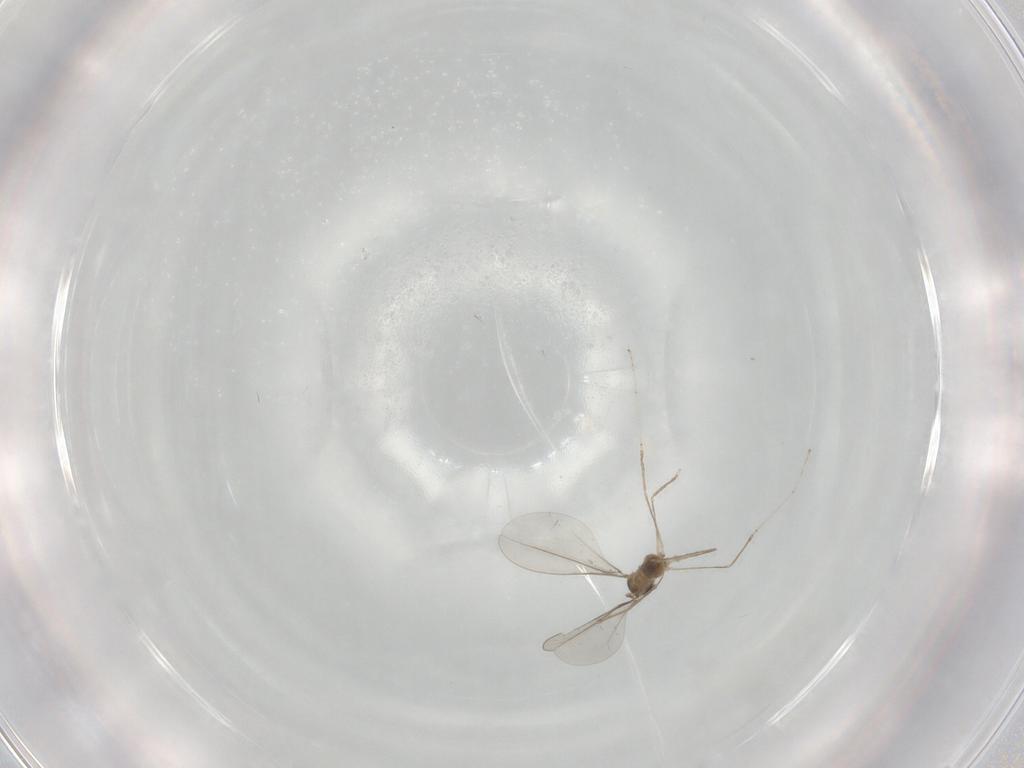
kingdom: Animalia
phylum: Arthropoda
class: Insecta
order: Diptera
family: Cecidomyiidae
